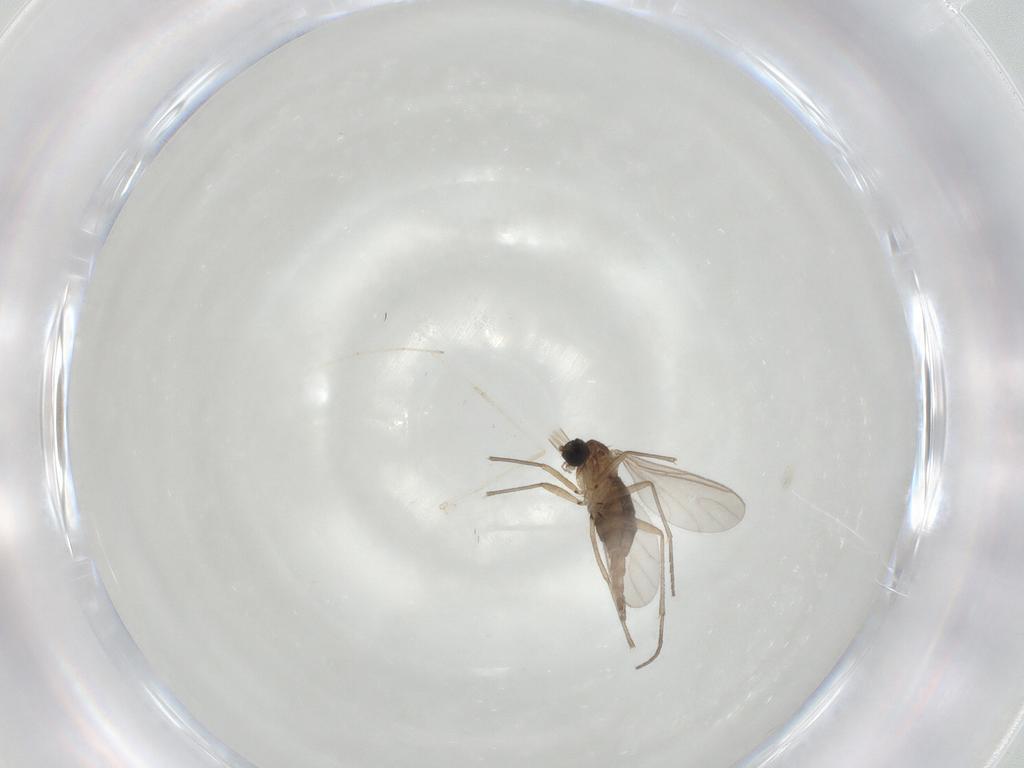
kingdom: Animalia
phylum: Arthropoda
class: Insecta
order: Diptera
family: Sciaridae
